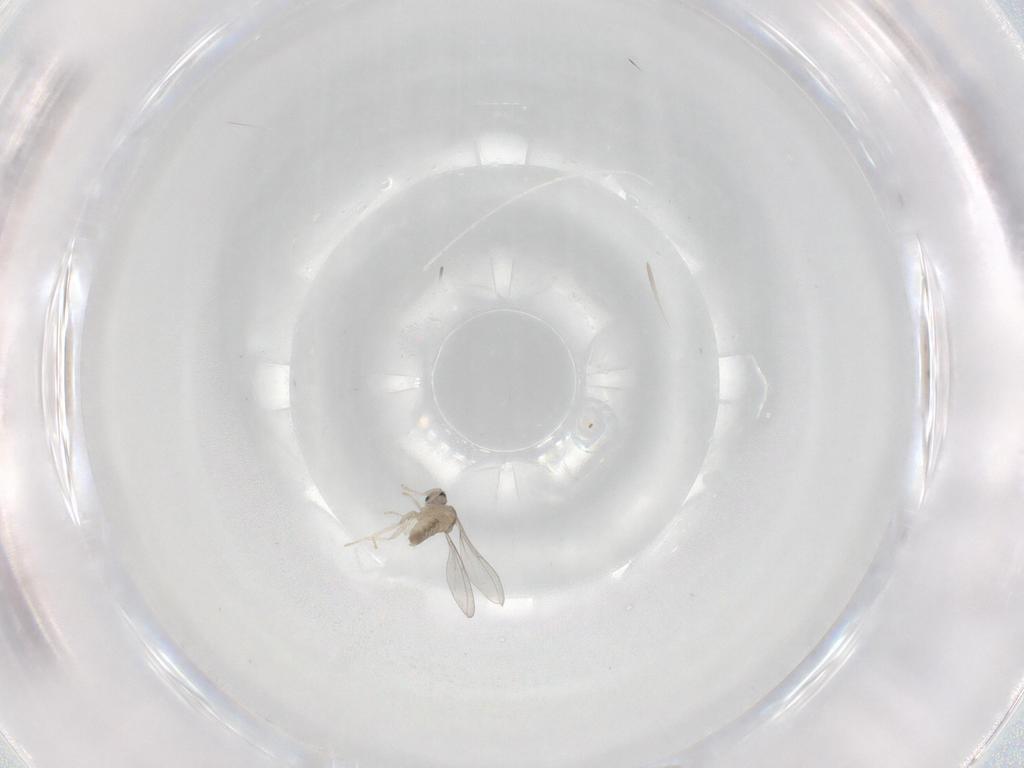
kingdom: Animalia
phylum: Arthropoda
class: Insecta
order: Diptera
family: Cecidomyiidae
